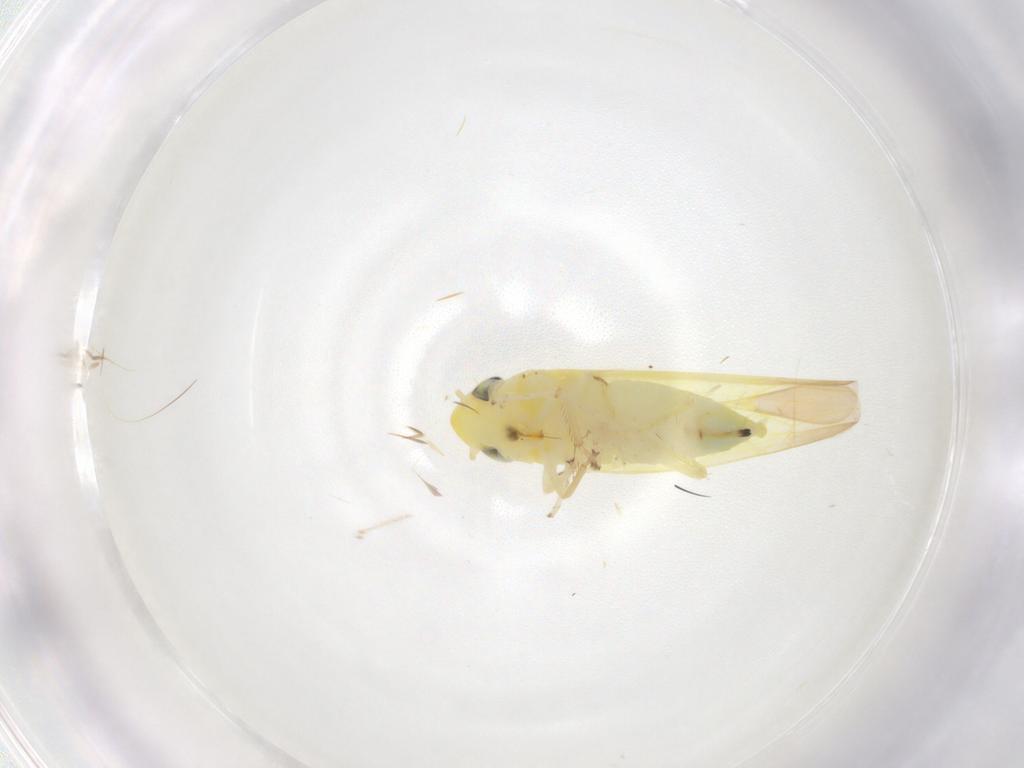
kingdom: Animalia
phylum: Arthropoda
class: Insecta
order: Hemiptera
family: Cicadellidae
